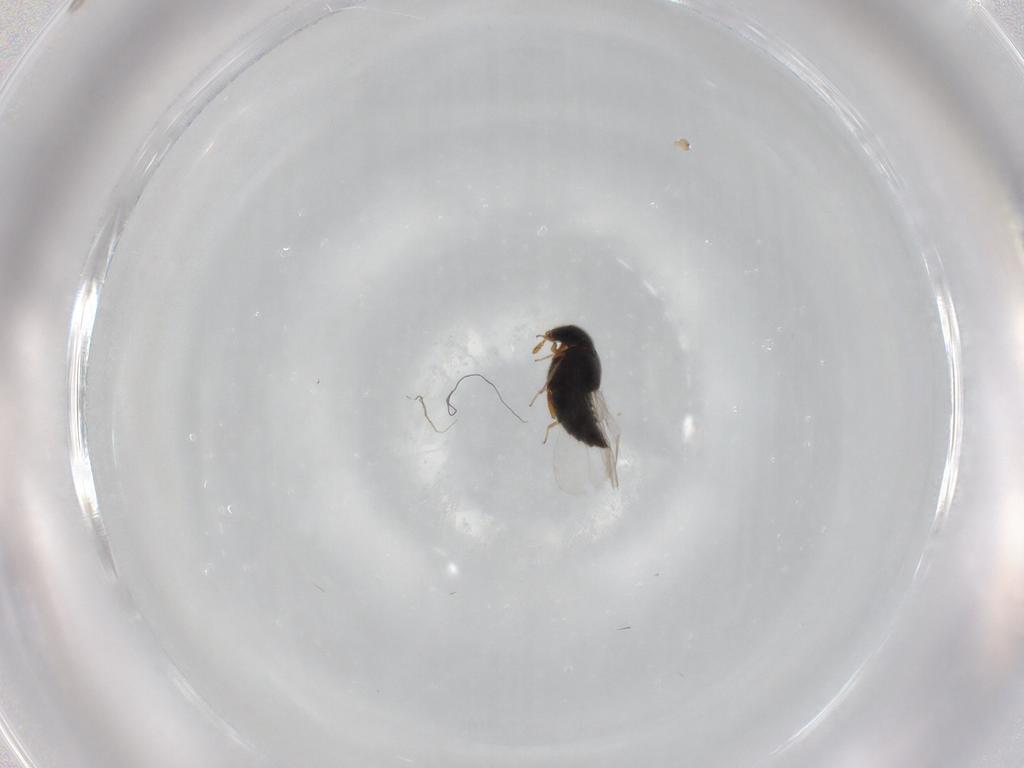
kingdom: Animalia
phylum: Arthropoda
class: Insecta
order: Coleoptera
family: Staphylinidae
